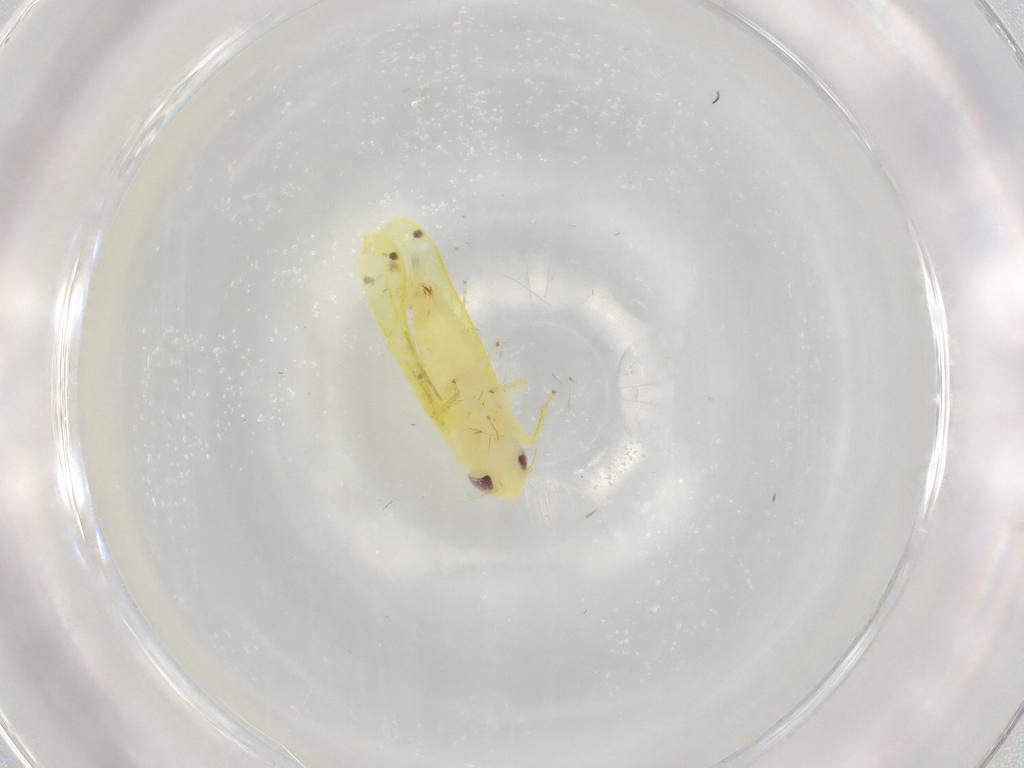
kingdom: Animalia
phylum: Arthropoda
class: Insecta
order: Hemiptera
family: Cicadellidae
